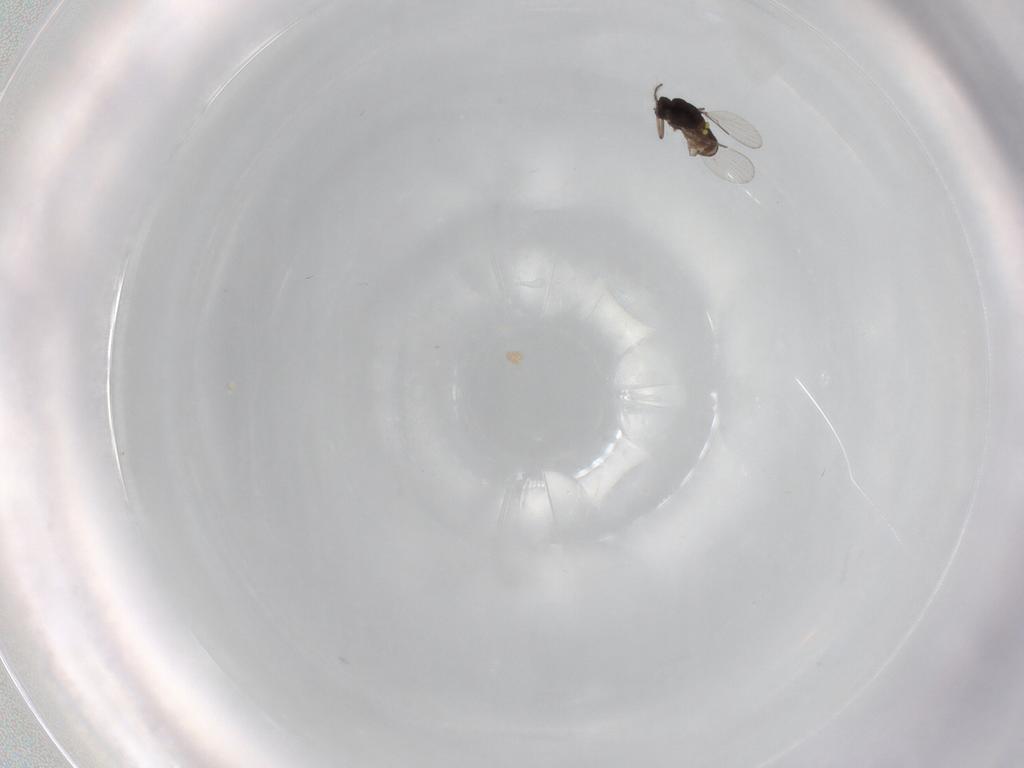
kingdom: Animalia
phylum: Arthropoda
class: Insecta
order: Diptera
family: Ceratopogonidae
